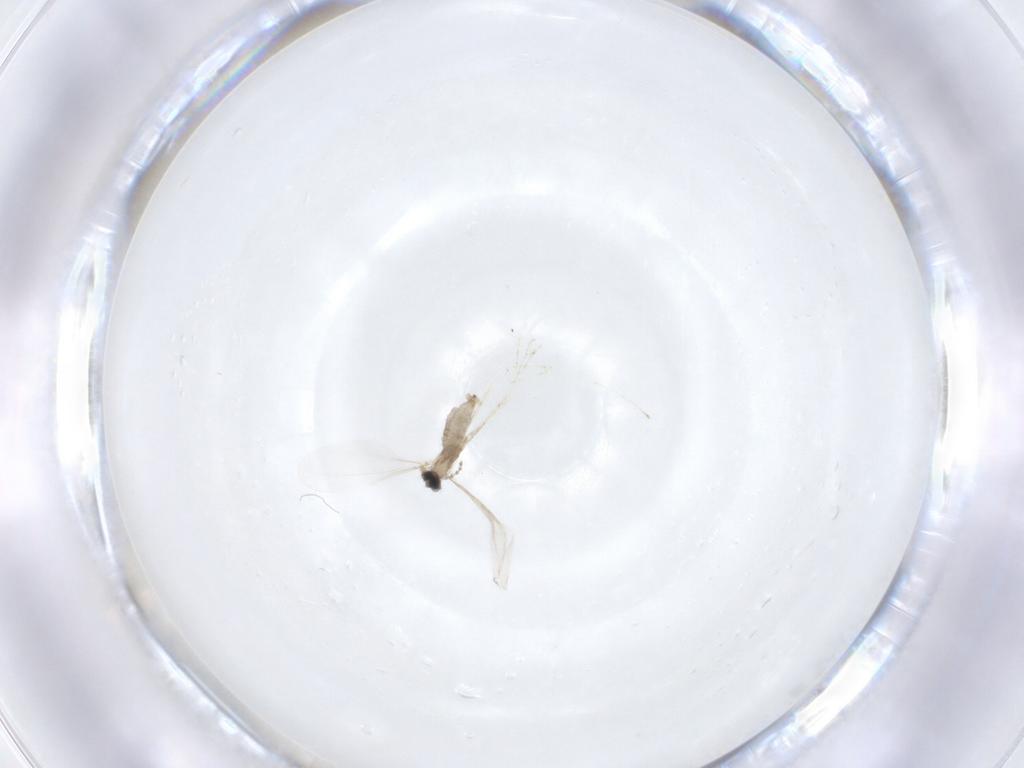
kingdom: Animalia
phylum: Arthropoda
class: Insecta
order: Diptera
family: Cecidomyiidae
